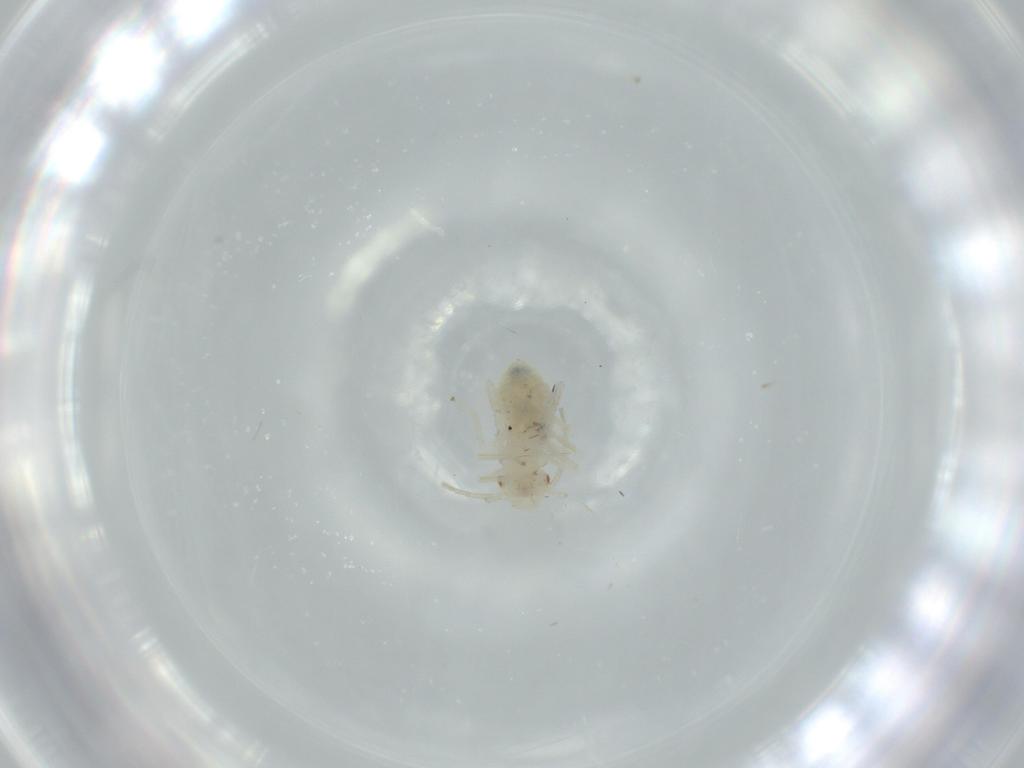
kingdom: Animalia
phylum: Arthropoda
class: Insecta
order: Psocodea
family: Caeciliusidae
